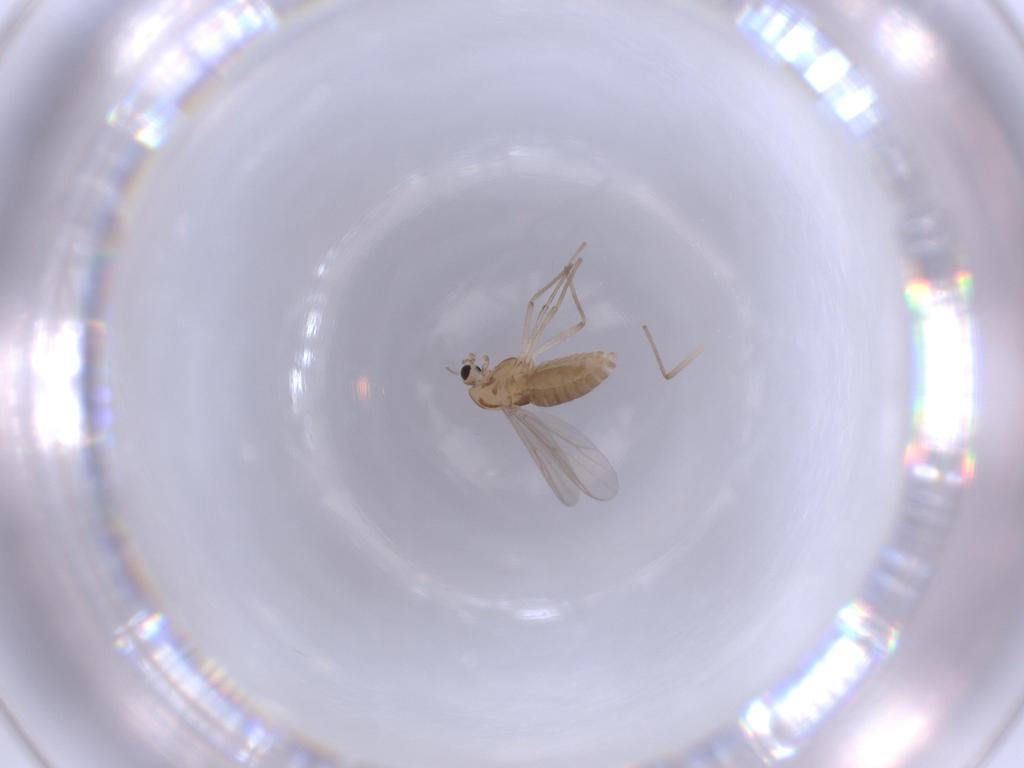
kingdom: Animalia
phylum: Arthropoda
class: Insecta
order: Diptera
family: Chironomidae
